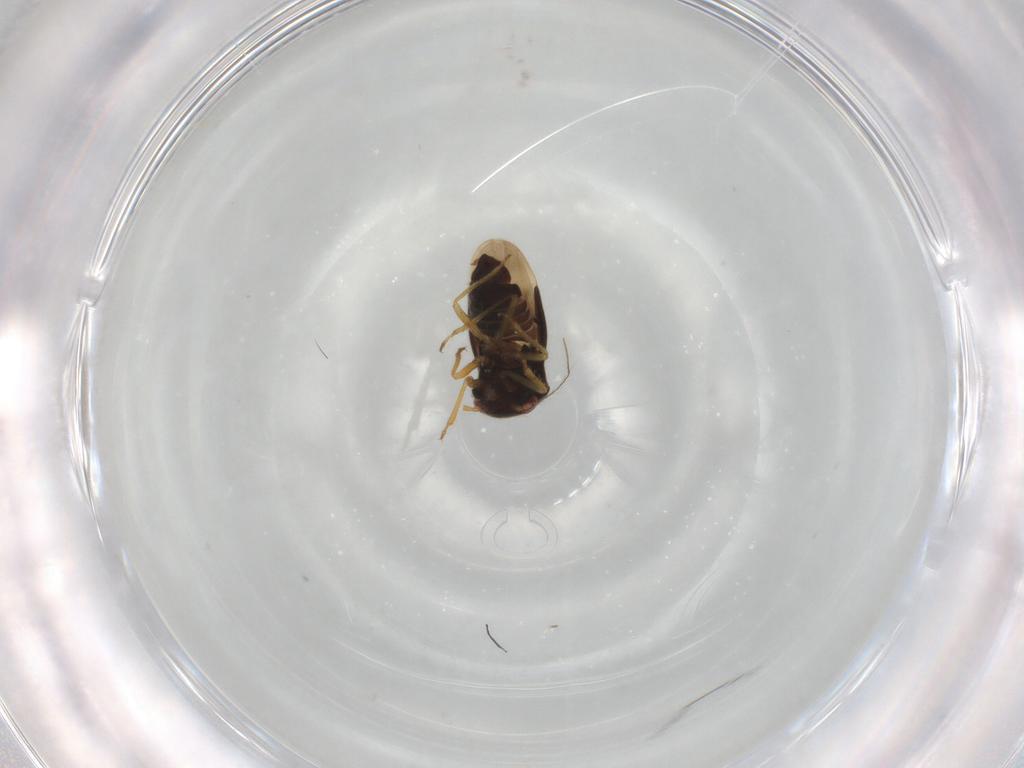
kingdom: Animalia
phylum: Arthropoda
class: Insecta
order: Hemiptera
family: Schizopteridae
